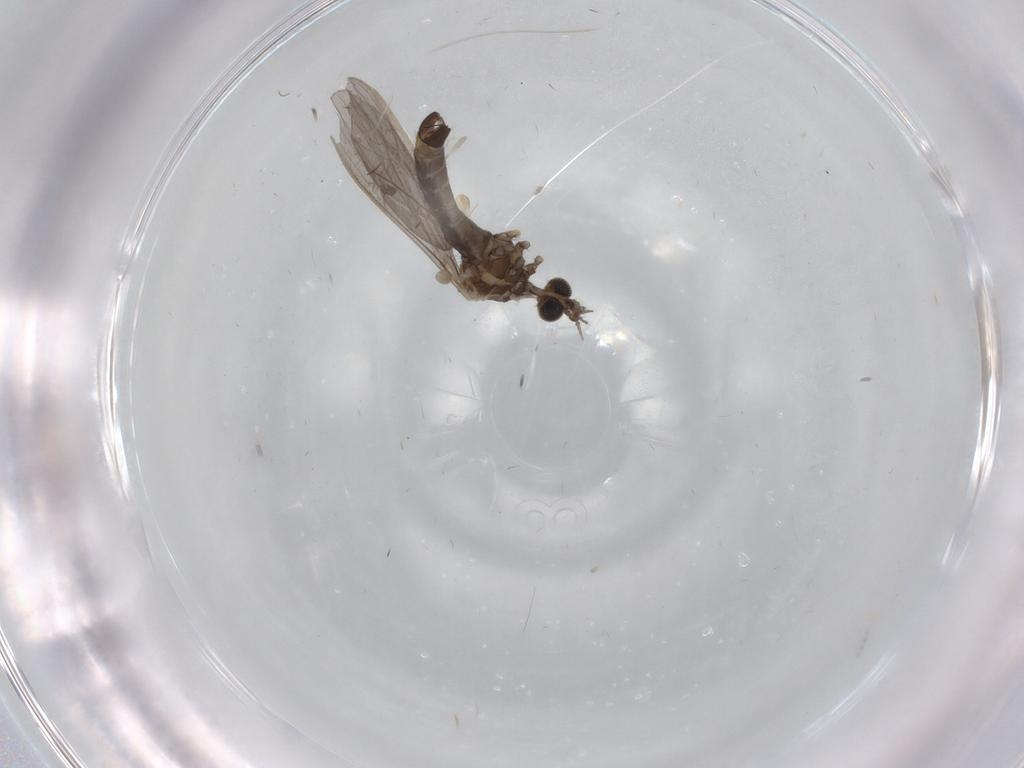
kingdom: Animalia
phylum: Arthropoda
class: Insecta
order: Diptera
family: Limoniidae
